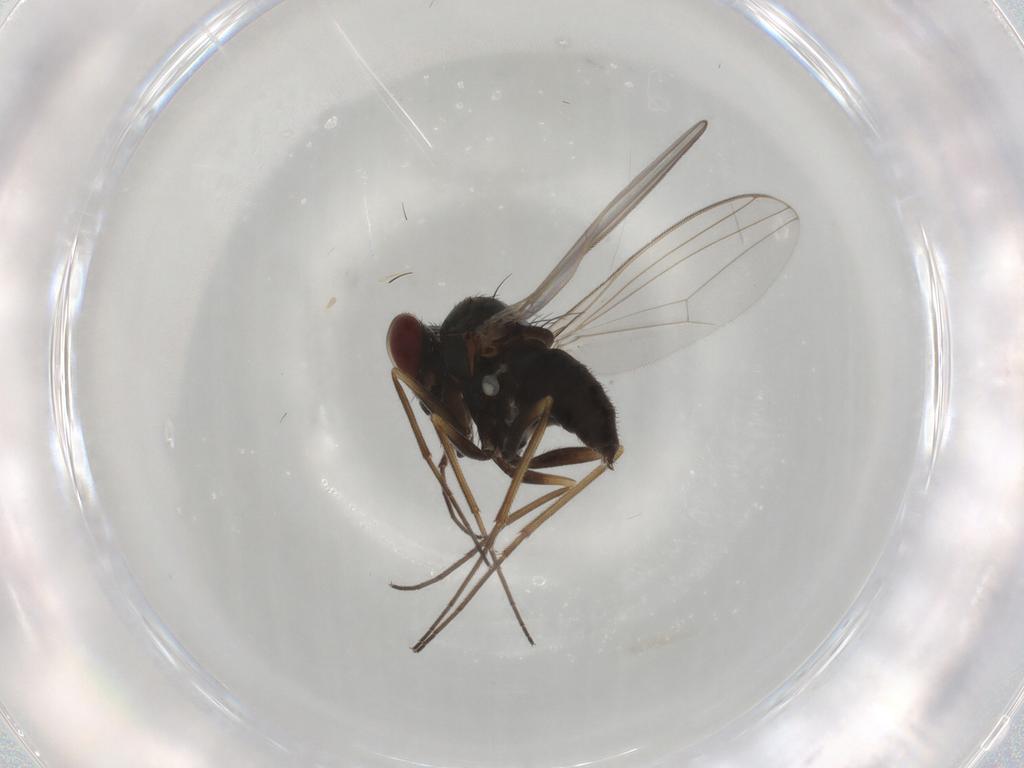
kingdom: Animalia
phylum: Arthropoda
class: Insecta
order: Diptera
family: Dolichopodidae
